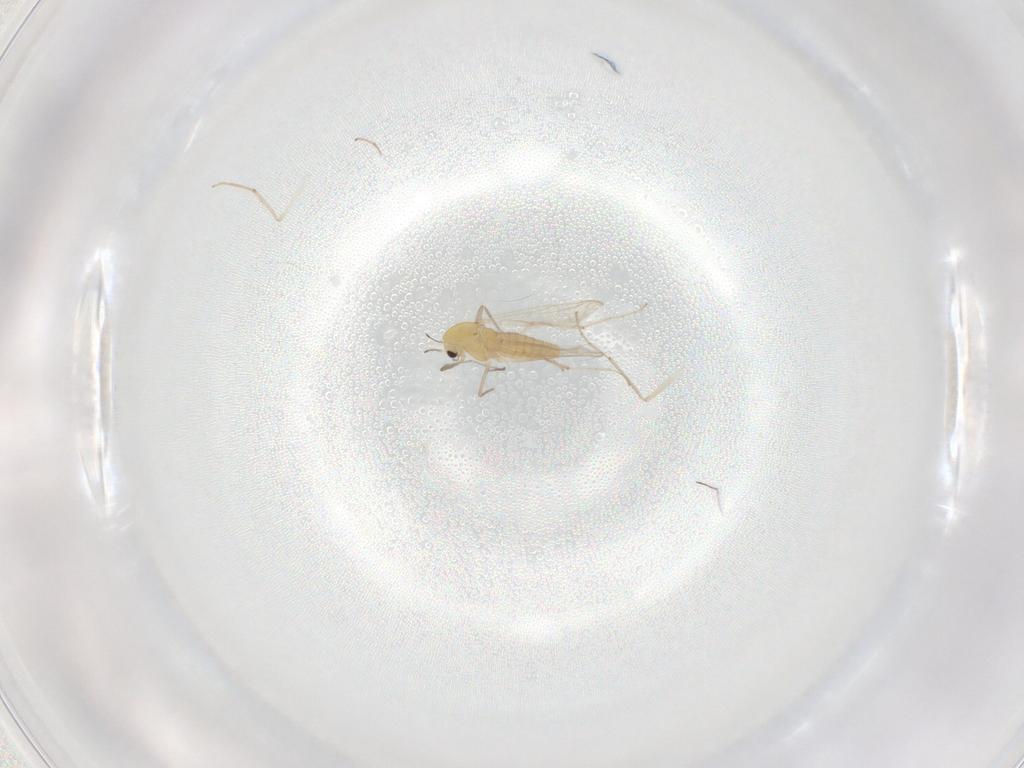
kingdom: Animalia
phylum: Arthropoda
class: Insecta
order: Diptera
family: Chironomidae
